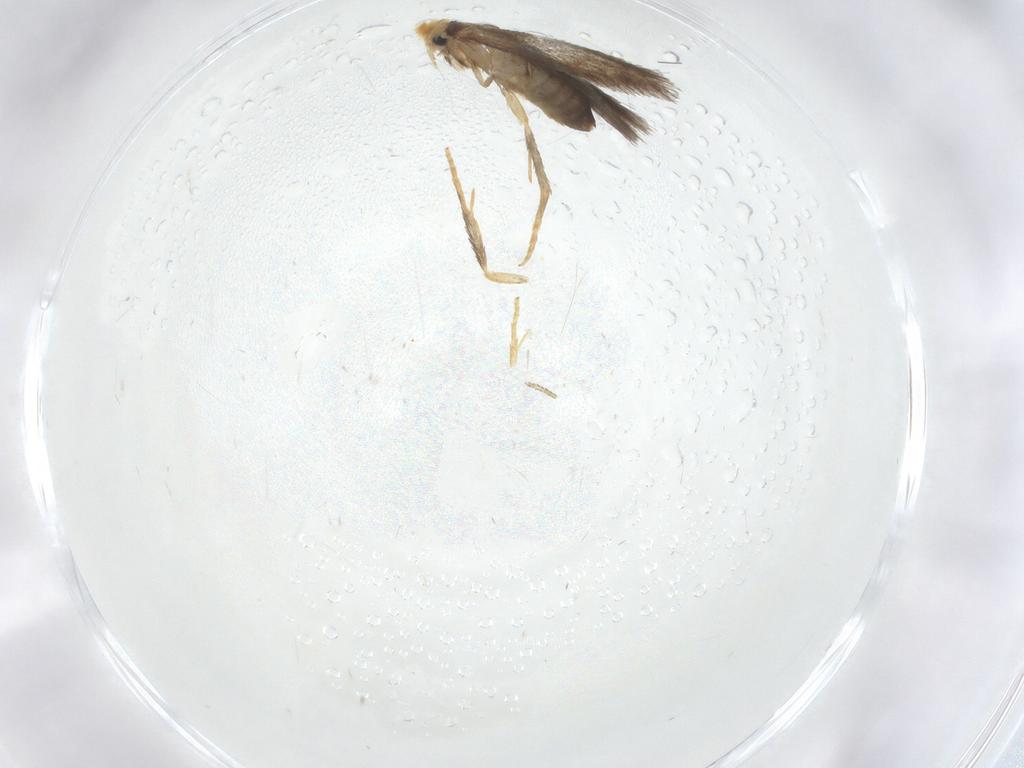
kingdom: Animalia
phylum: Arthropoda
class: Insecta
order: Lepidoptera
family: Nepticulidae
